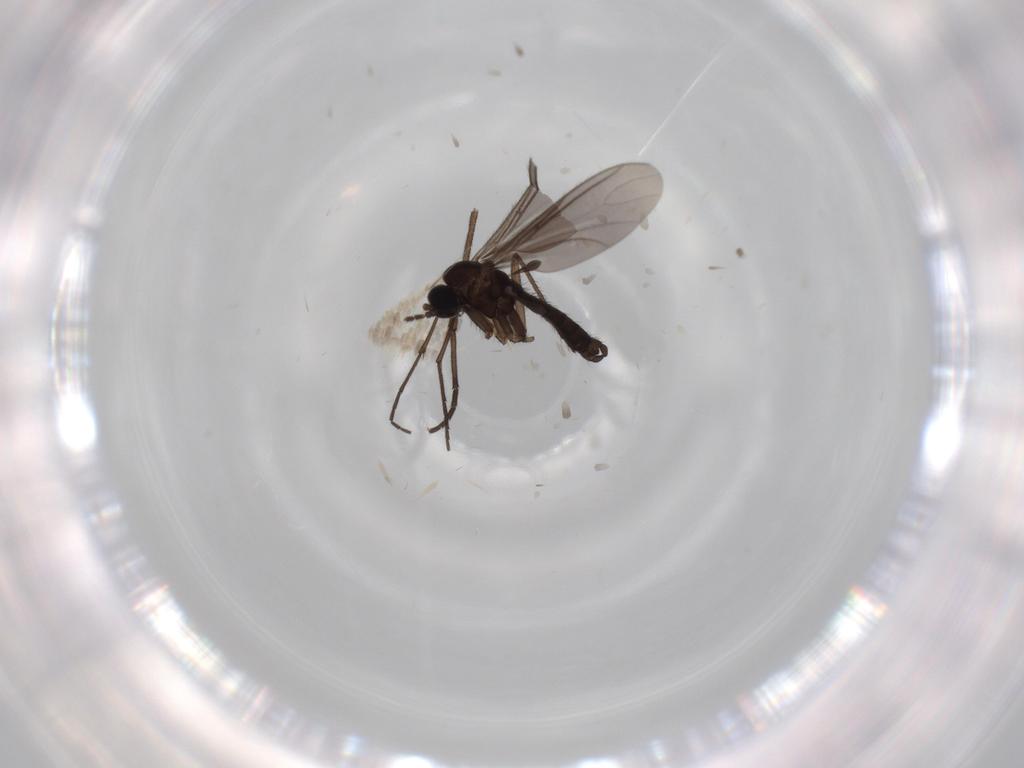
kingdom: Animalia
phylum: Arthropoda
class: Insecta
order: Diptera
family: Sciaridae
